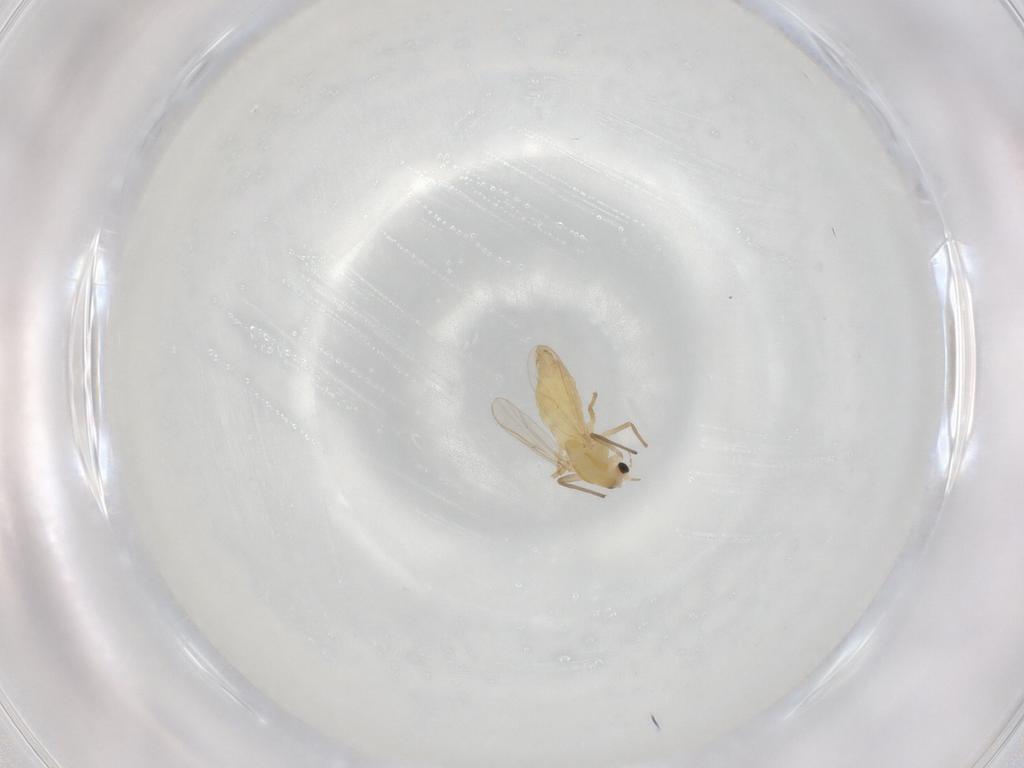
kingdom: Animalia
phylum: Arthropoda
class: Insecta
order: Diptera
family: Chironomidae
